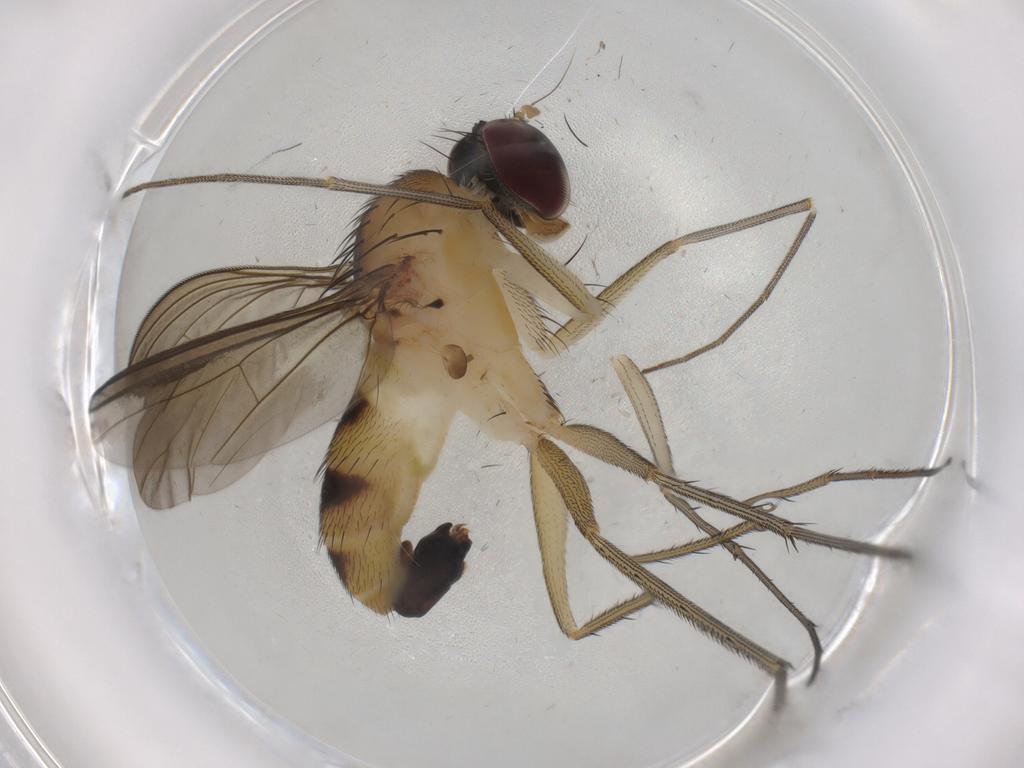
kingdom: Animalia
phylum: Arthropoda
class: Insecta
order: Diptera
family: Dolichopodidae
